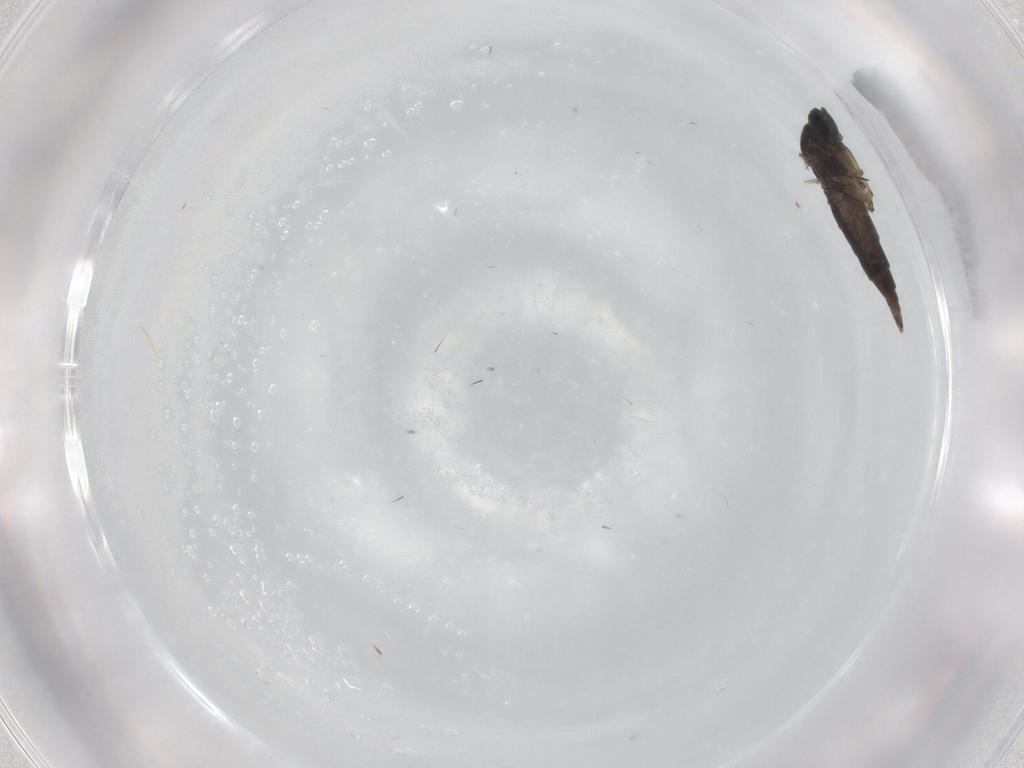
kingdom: Animalia
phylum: Arthropoda
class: Insecta
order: Diptera
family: Sciaridae
